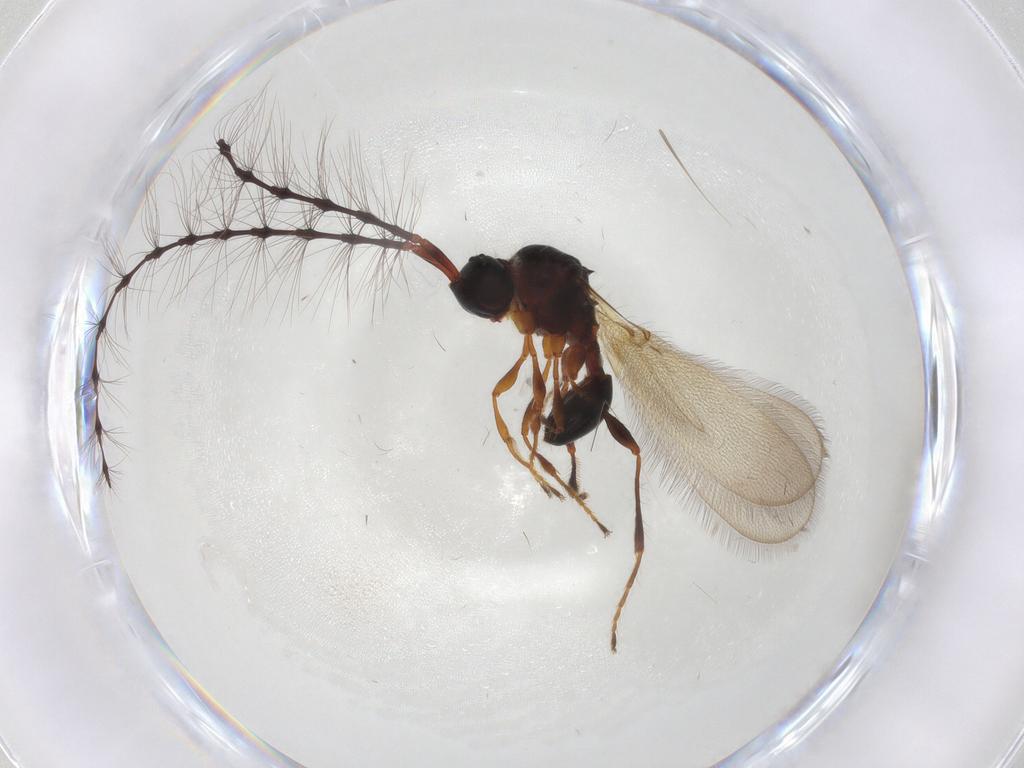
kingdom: Animalia
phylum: Arthropoda
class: Insecta
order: Hymenoptera
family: Diapriidae
